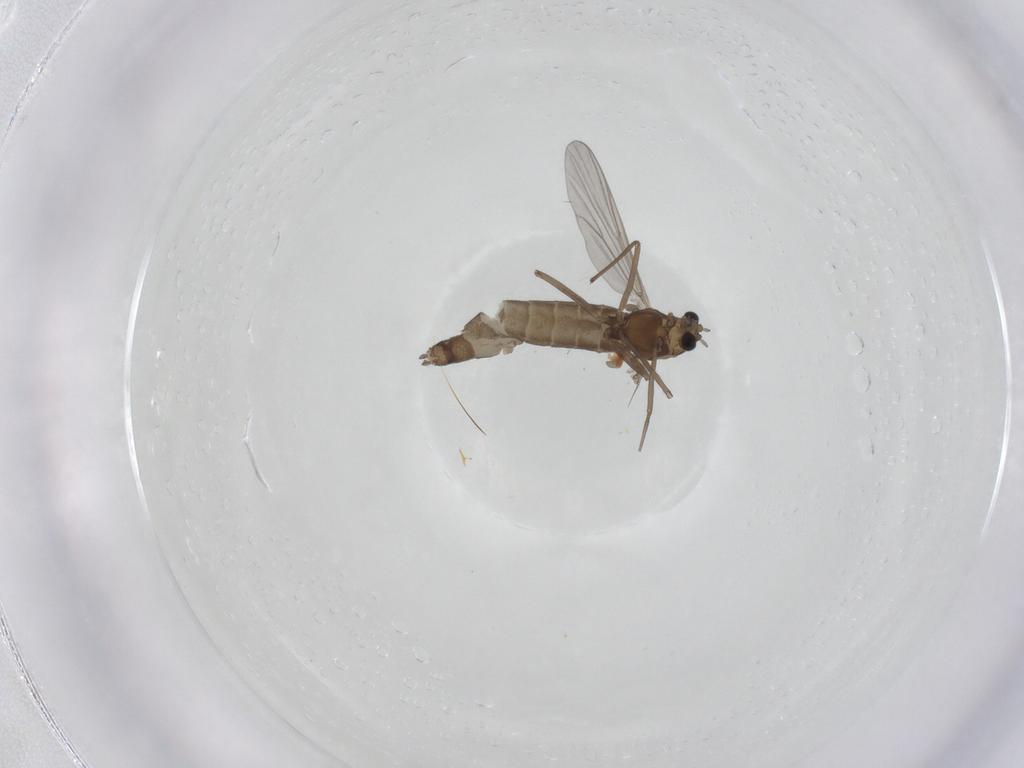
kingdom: Animalia
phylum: Arthropoda
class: Insecta
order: Diptera
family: Chironomidae
